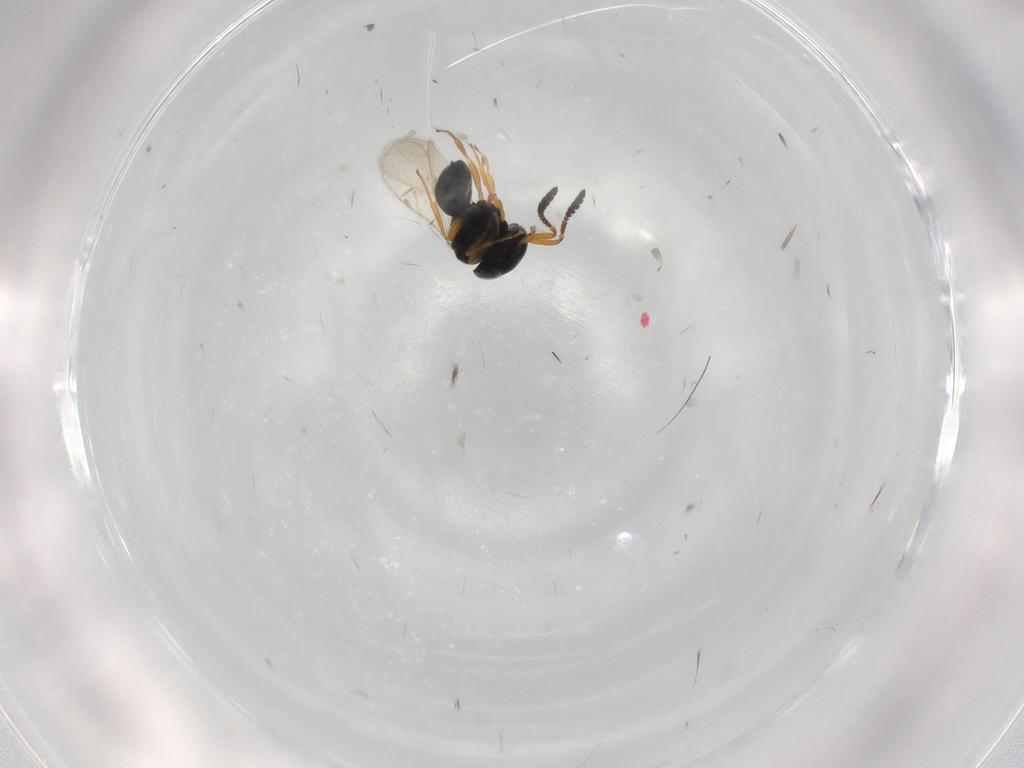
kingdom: Animalia
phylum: Arthropoda
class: Insecta
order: Hymenoptera
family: Scelionidae
